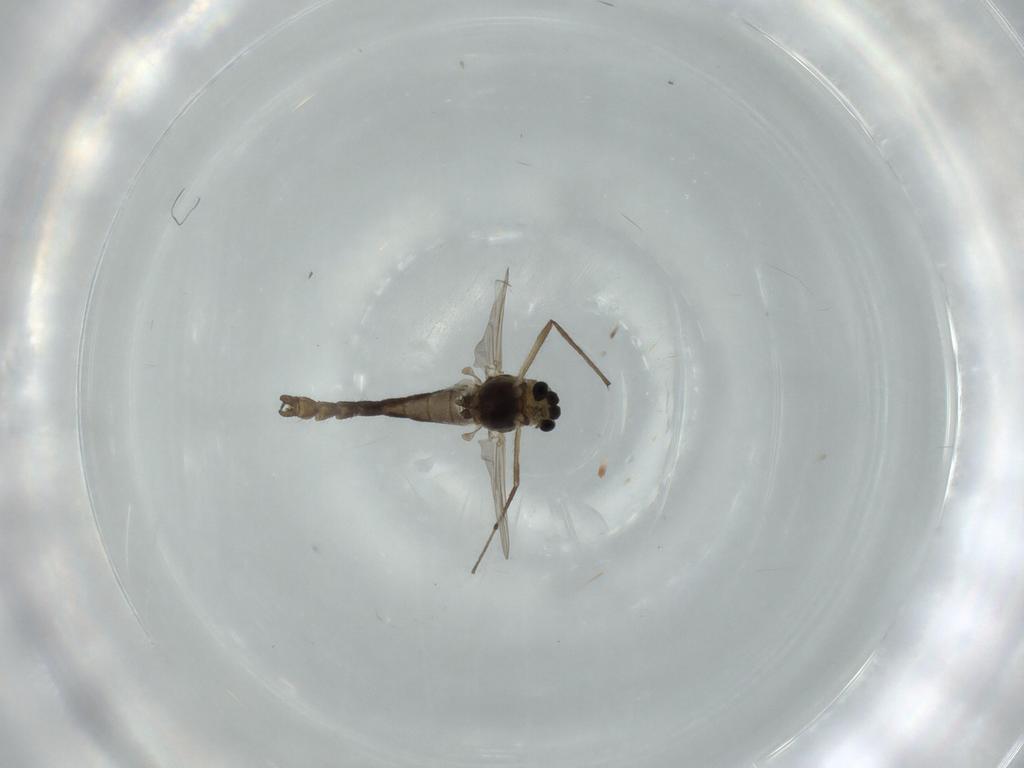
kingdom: Animalia
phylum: Arthropoda
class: Insecta
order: Diptera
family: Chironomidae
